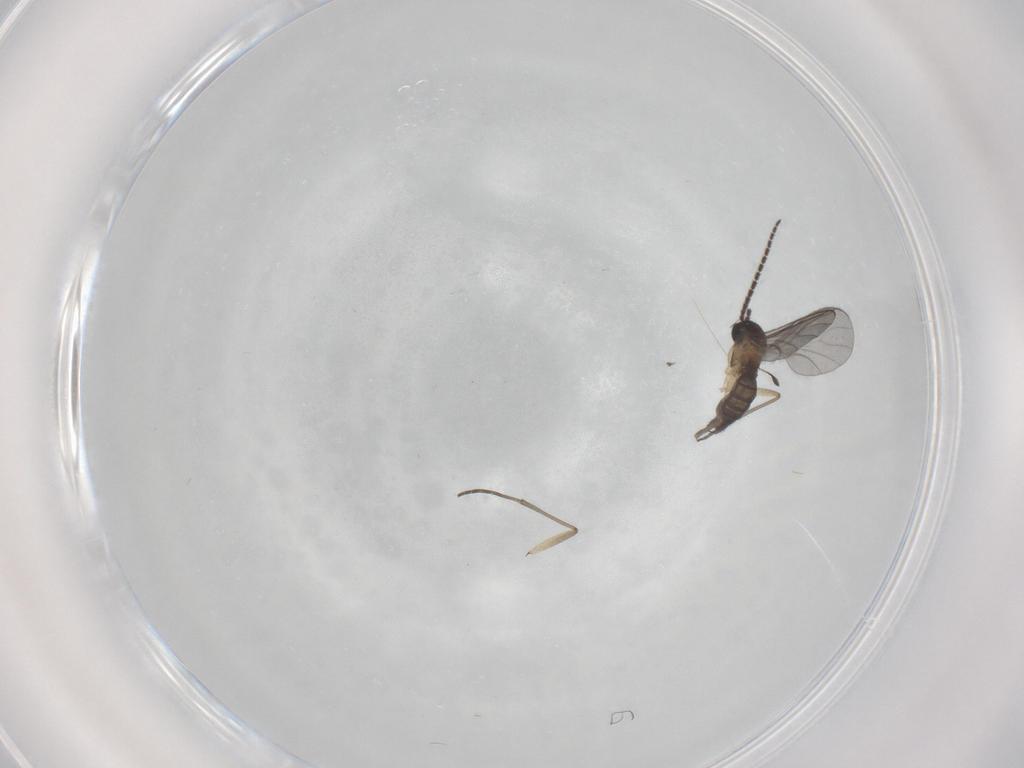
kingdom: Animalia
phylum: Arthropoda
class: Insecta
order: Diptera
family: Sciaridae
